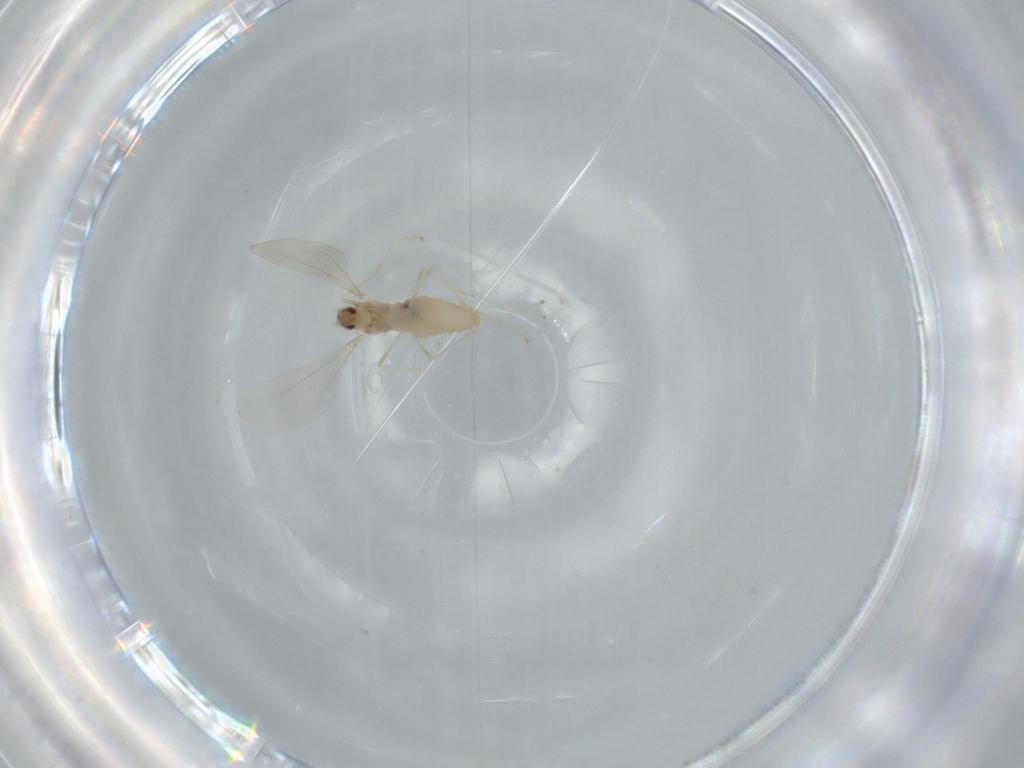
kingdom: Animalia
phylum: Arthropoda
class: Insecta
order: Diptera
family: Cecidomyiidae
